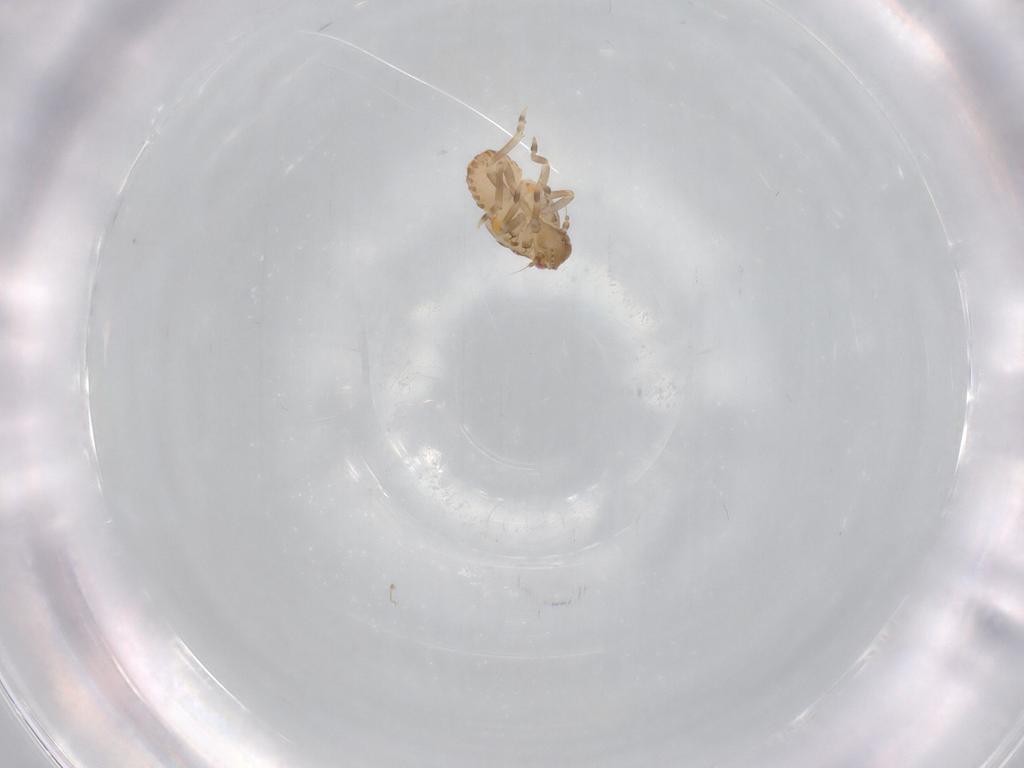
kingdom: Animalia
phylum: Arthropoda
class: Insecta
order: Hemiptera
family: Flatidae
